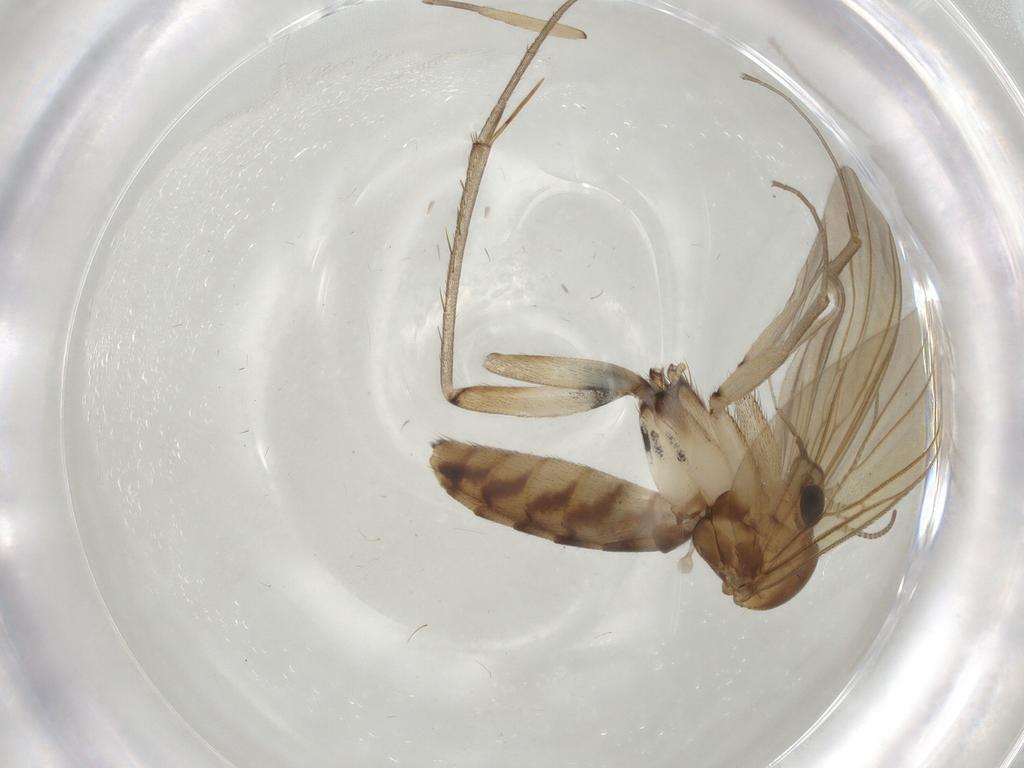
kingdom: Animalia
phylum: Arthropoda
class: Insecta
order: Diptera
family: Mycetophilidae
